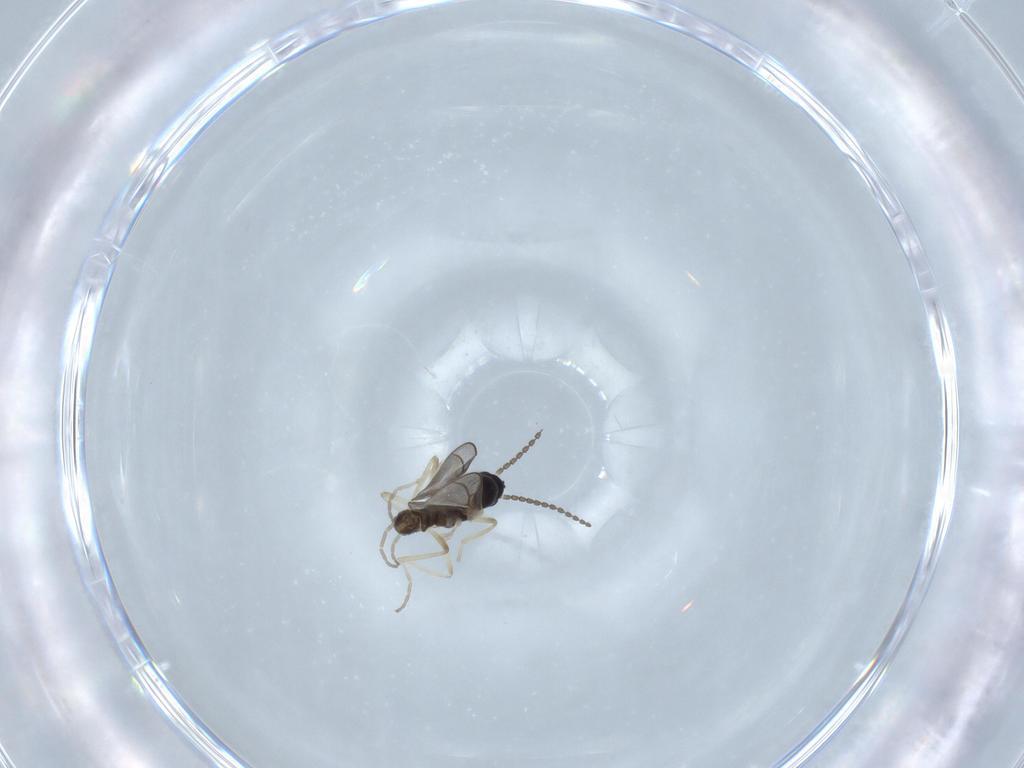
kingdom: Animalia
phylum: Arthropoda
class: Insecta
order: Diptera
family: Cecidomyiidae
